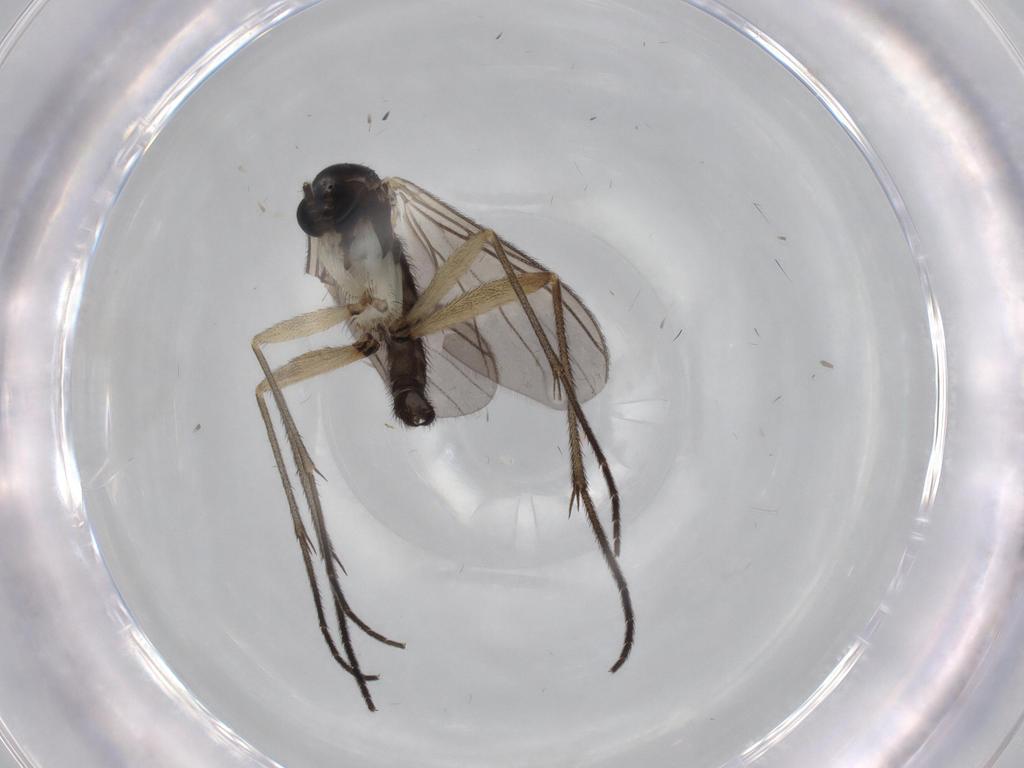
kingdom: Animalia
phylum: Arthropoda
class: Insecta
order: Diptera
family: Sciaridae
